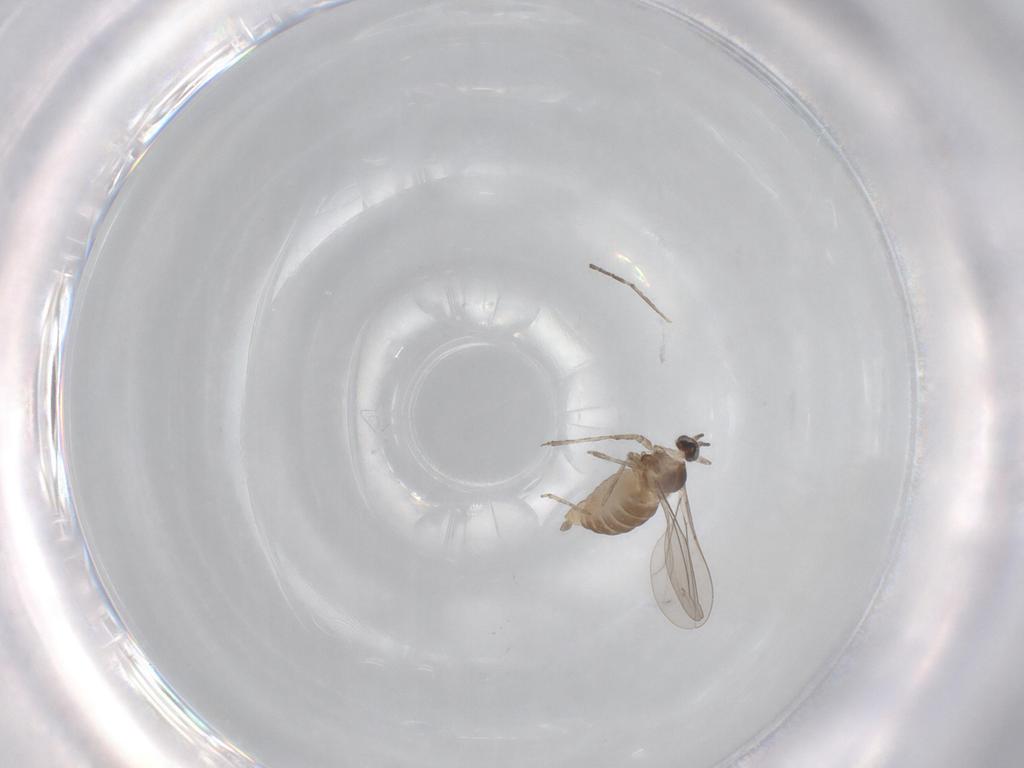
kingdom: Animalia
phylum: Arthropoda
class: Insecta
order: Diptera
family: Cecidomyiidae
